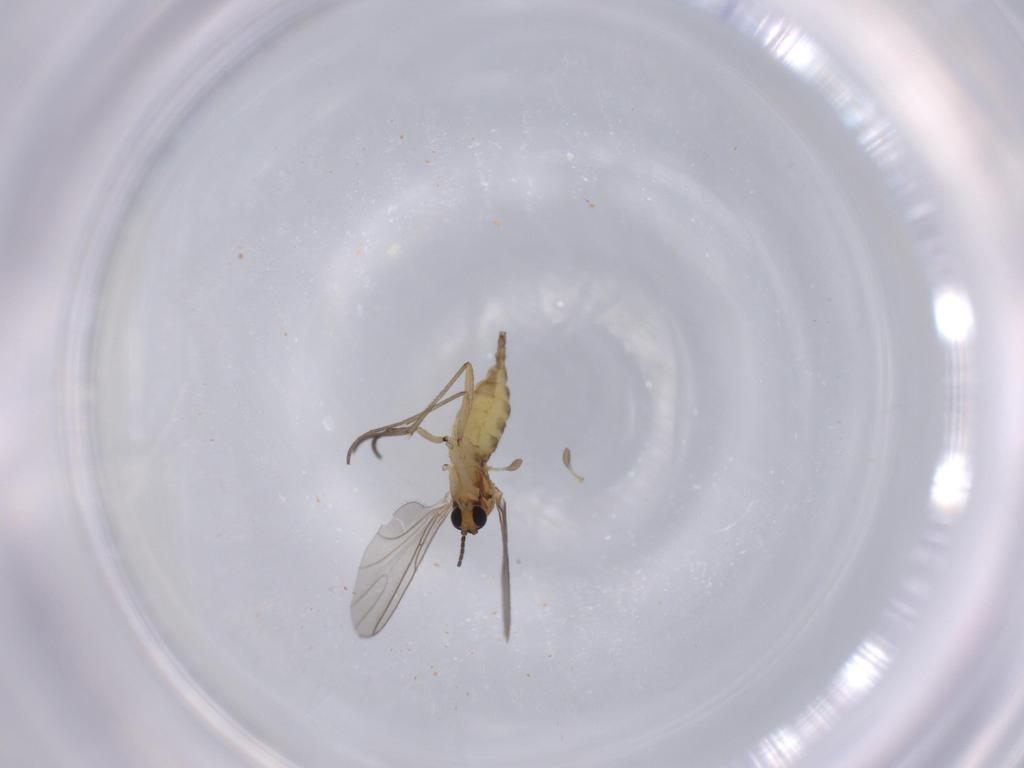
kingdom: Animalia
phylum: Arthropoda
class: Insecta
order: Diptera
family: Sciaridae
